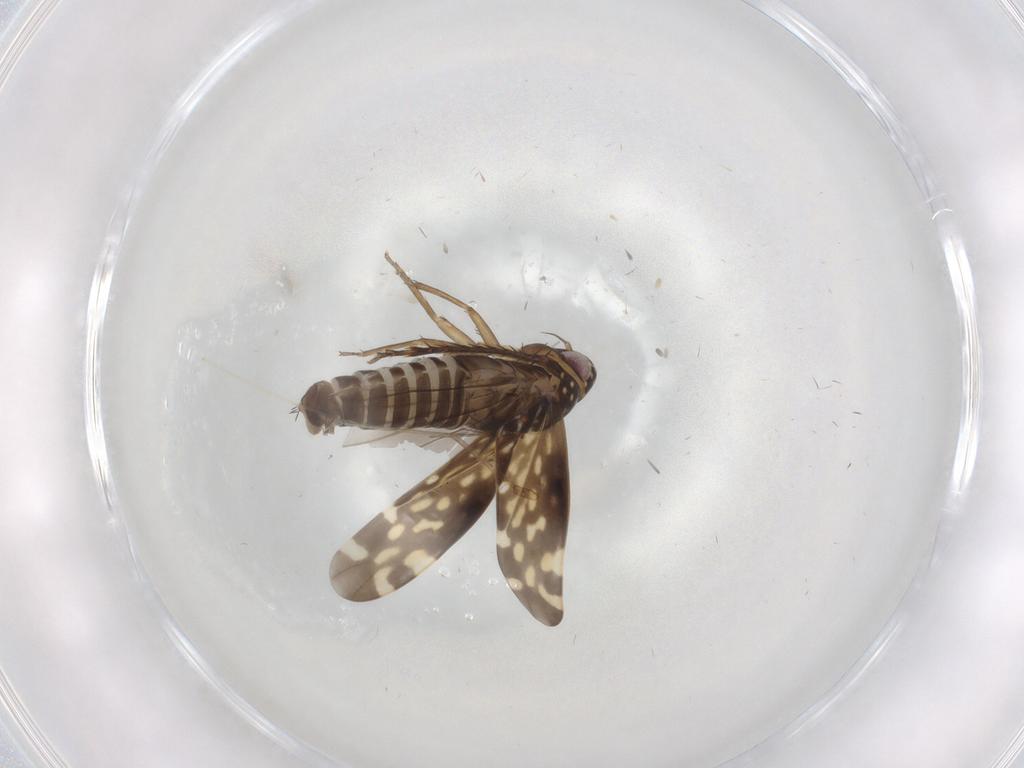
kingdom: Animalia
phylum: Arthropoda
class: Insecta
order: Hemiptera
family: Cicadellidae
